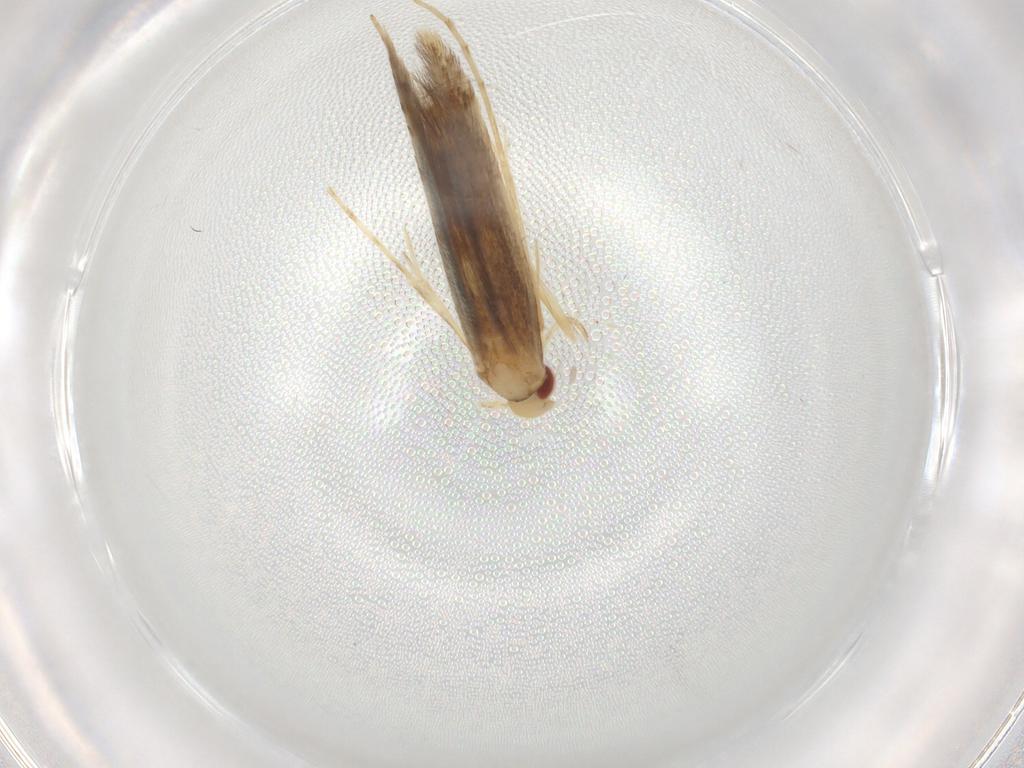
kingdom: Animalia
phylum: Arthropoda
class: Insecta
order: Lepidoptera
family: Gracillariidae
